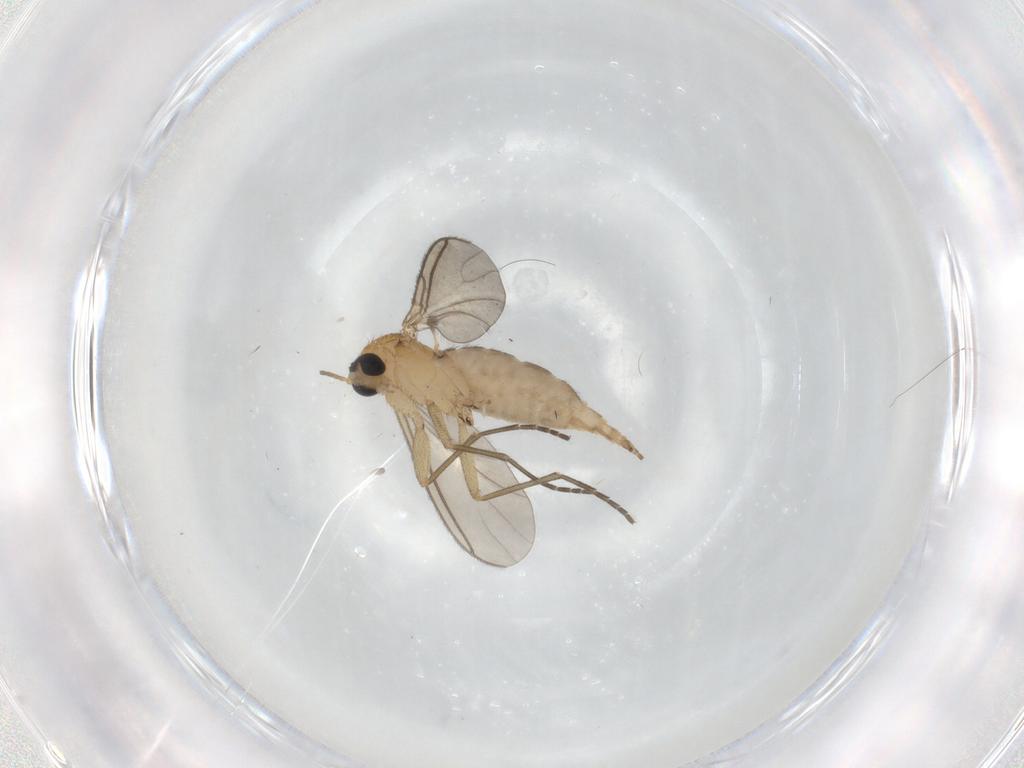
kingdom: Animalia
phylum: Arthropoda
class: Insecta
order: Diptera
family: Sciaridae
